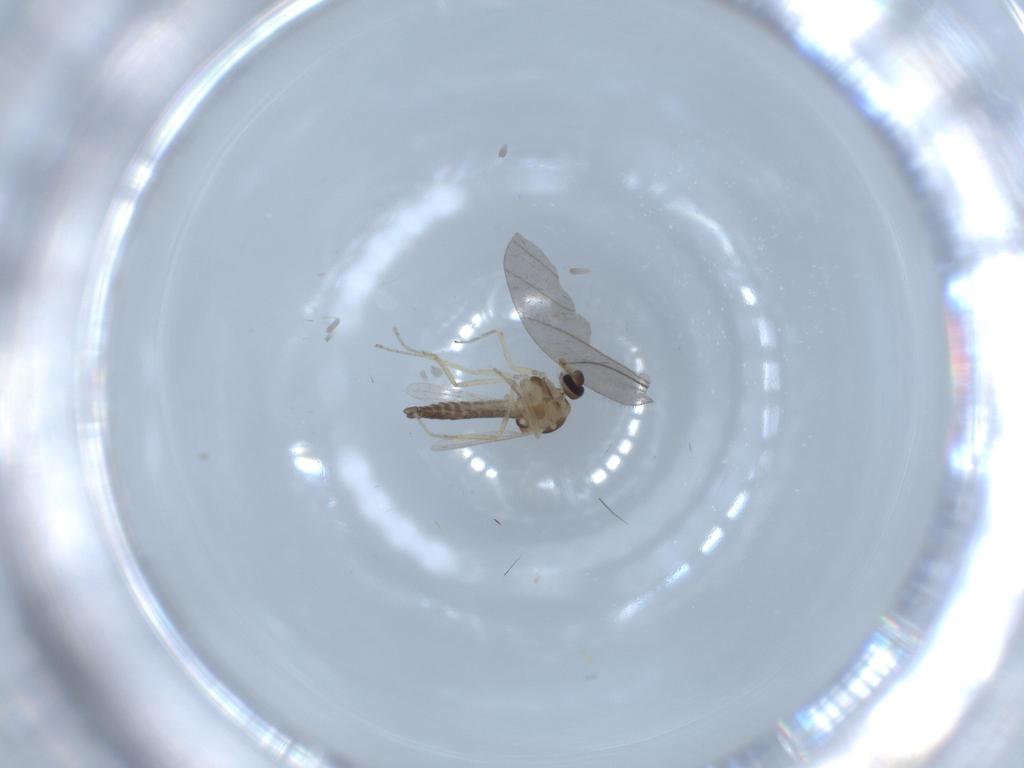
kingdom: Animalia
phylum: Arthropoda
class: Insecta
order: Diptera
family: Ceratopogonidae
